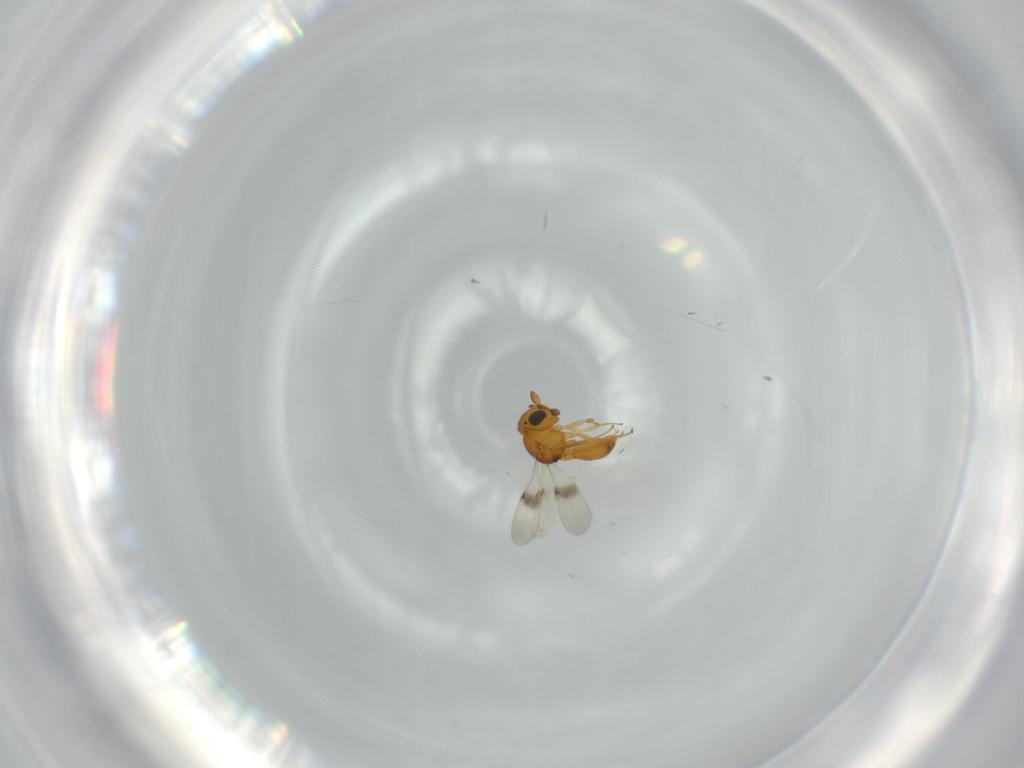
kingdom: Animalia
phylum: Arthropoda
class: Insecta
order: Hymenoptera
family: Scelionidae
